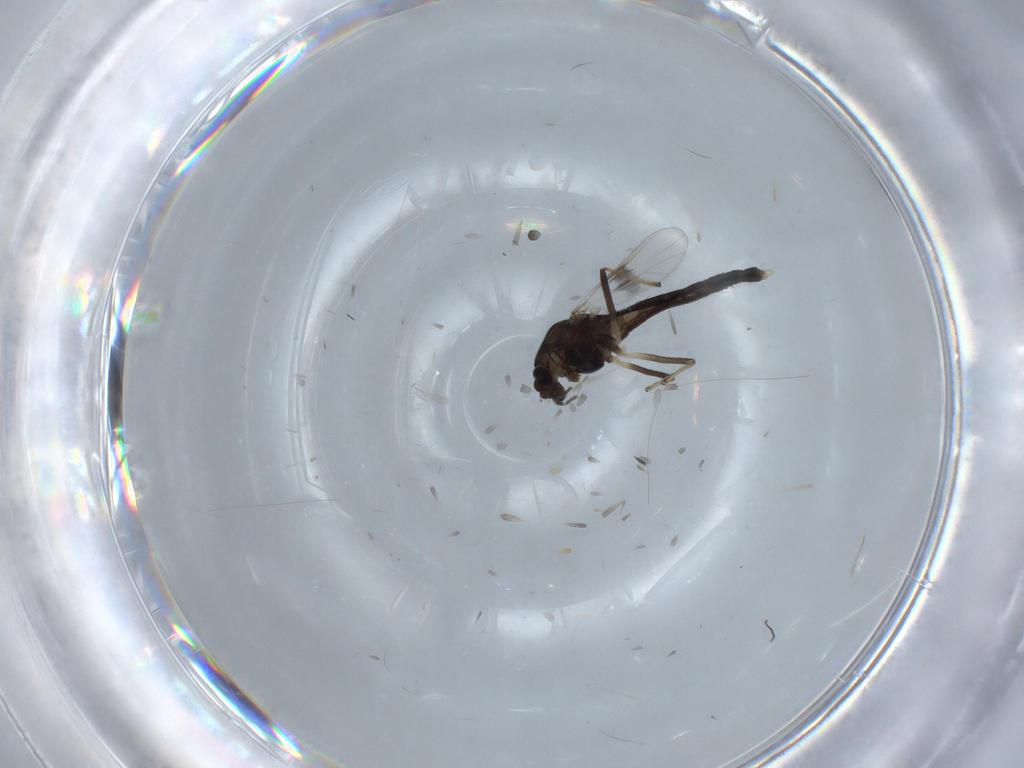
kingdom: Animalia
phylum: Arthropoda
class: Insecta
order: Diptera
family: Chironomidae
